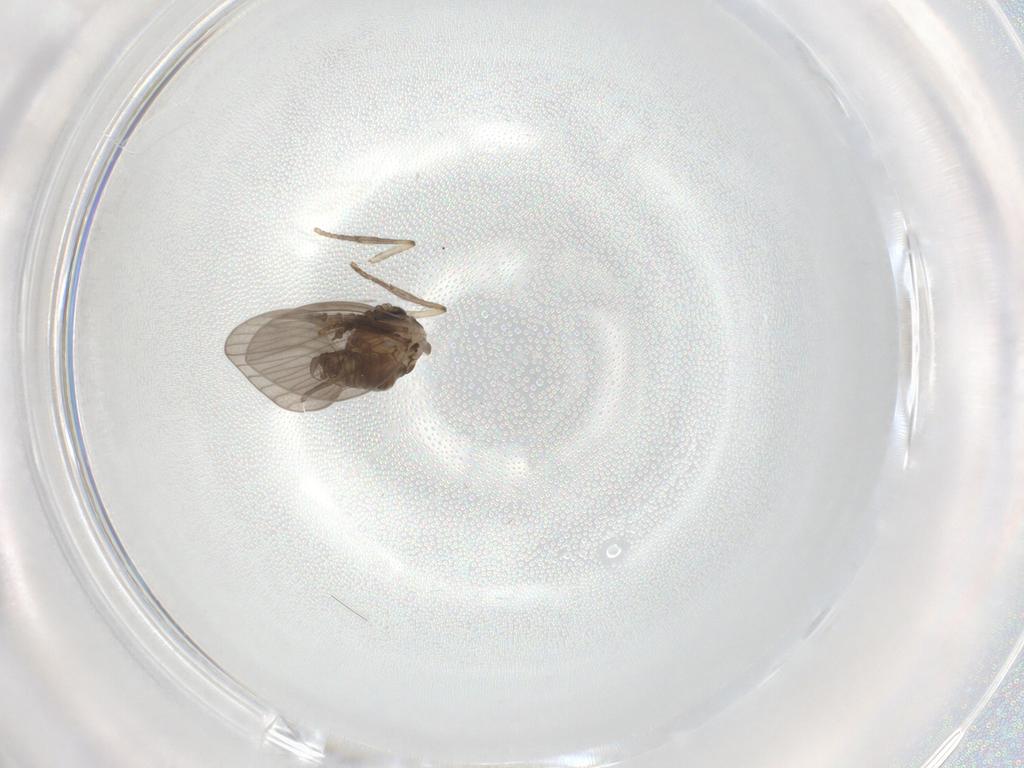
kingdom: Animalia
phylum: Arthropoda
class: Insecta
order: Diptera
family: Psychodidae
